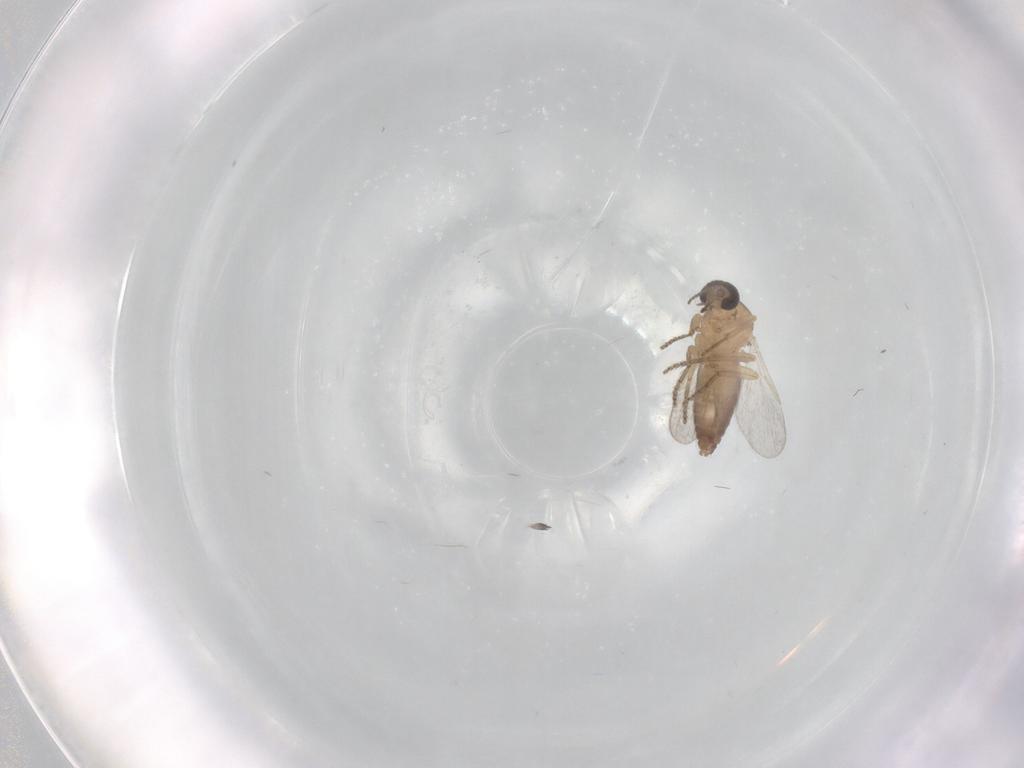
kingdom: Animalia
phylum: Arthropoda
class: Insecta
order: Diptera
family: Ceratopogonidae
